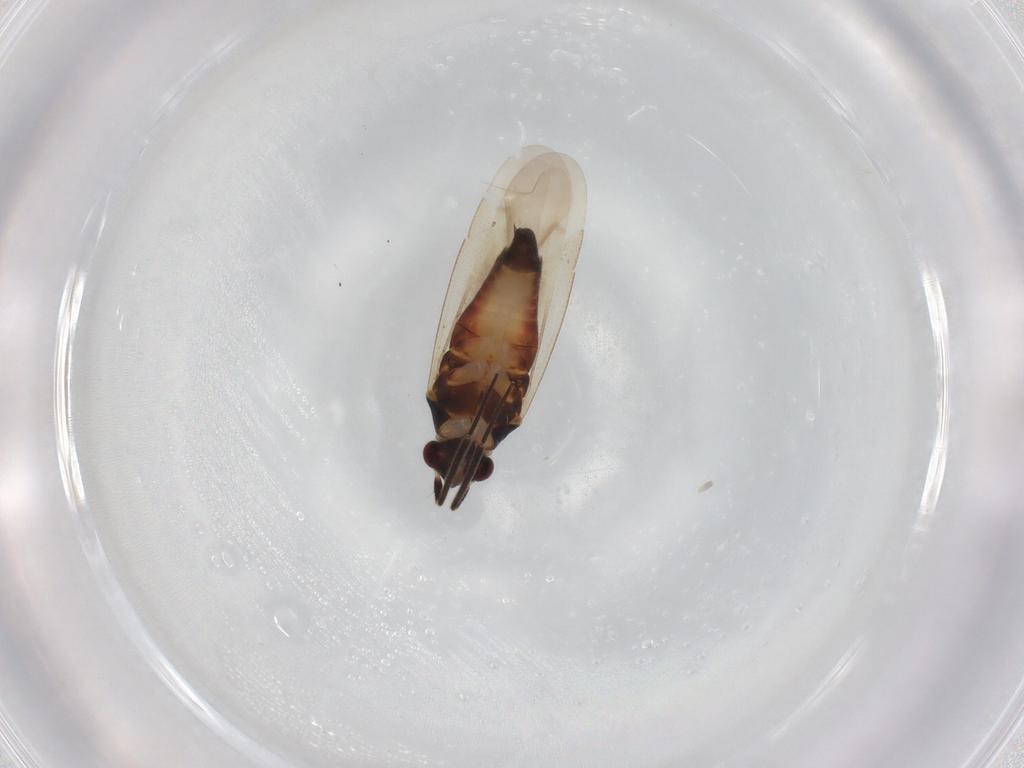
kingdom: Animalia
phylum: Arthropoda
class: Insecta
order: Hemiptera
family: Miridae
